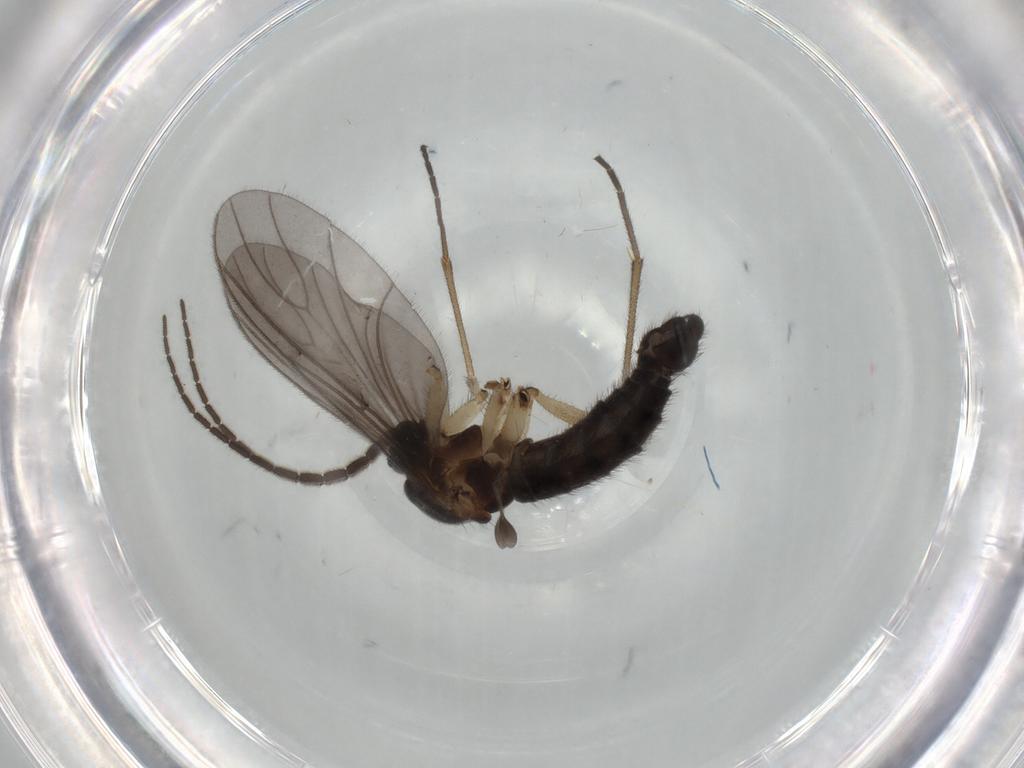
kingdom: Animalia
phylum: Arthropoda
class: Insecta
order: Diptera
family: Sciaridae
